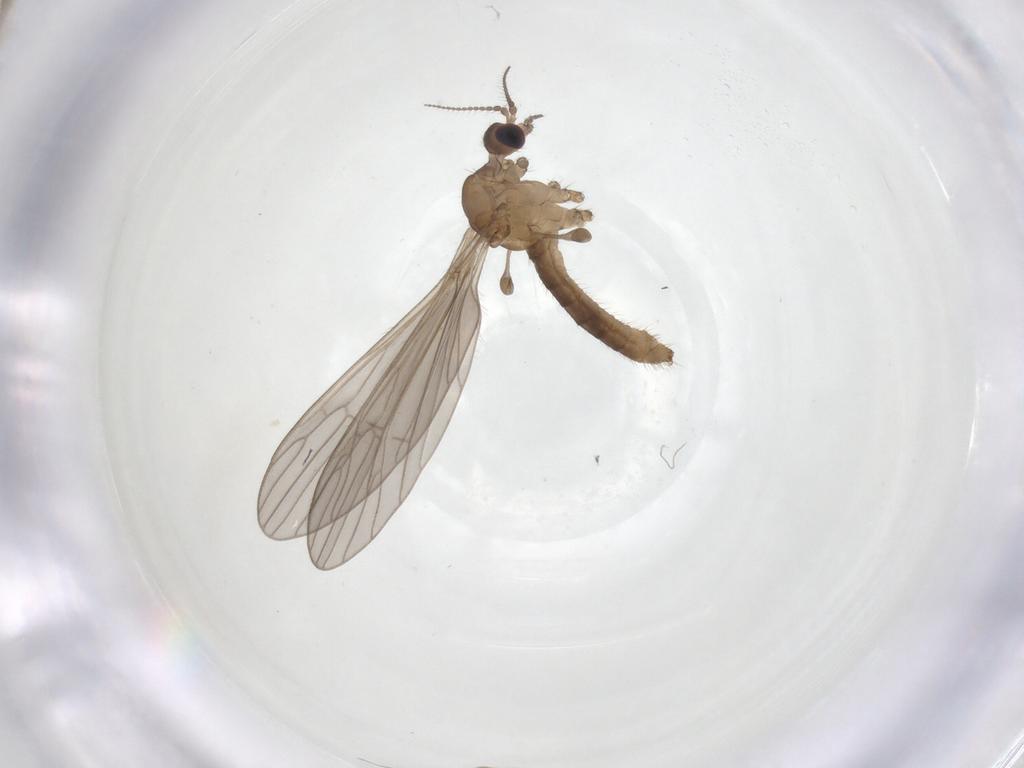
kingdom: Animalia
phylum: Arthropoda
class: Insecta
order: Diptera
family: Limoniidae
